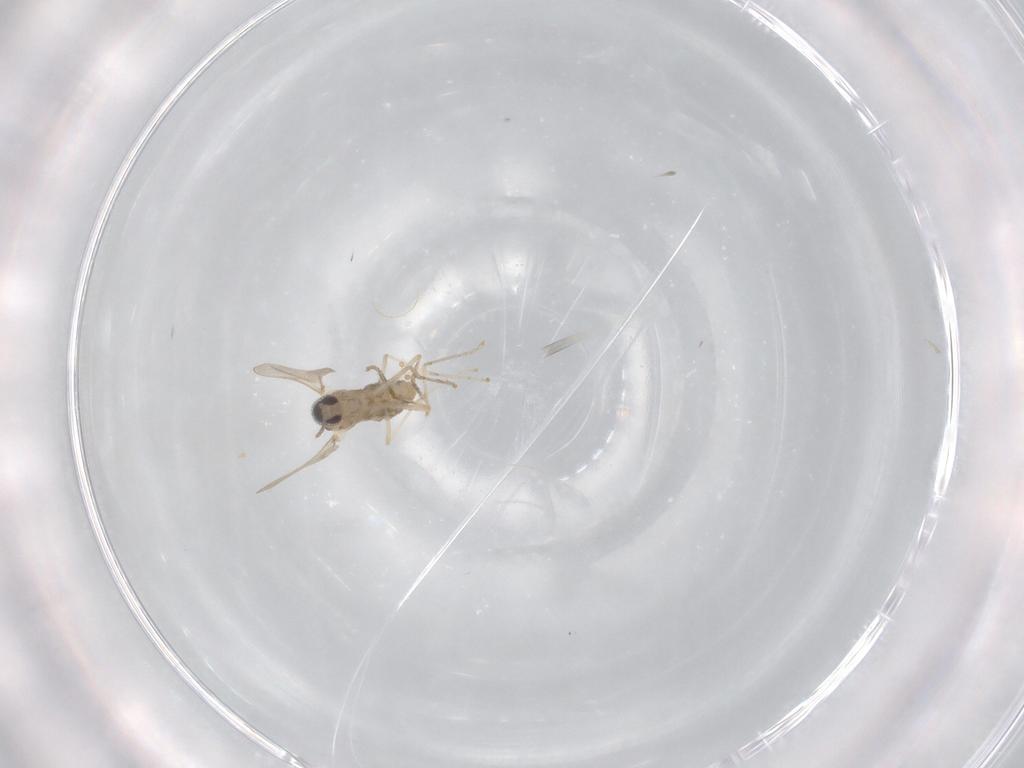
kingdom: Animalia
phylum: Arthropoda
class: Insecta
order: Diptera
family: Cecidomyiidae
